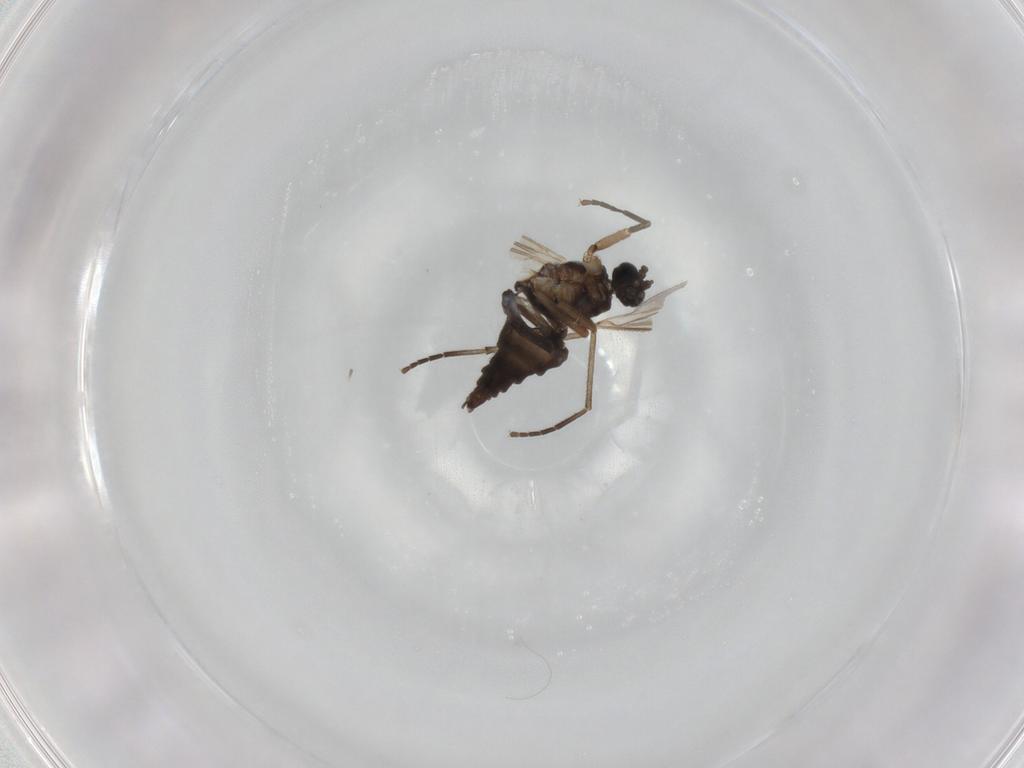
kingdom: Animalia
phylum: Arthropoda
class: Insecta
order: Diptera
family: Sciaridae
